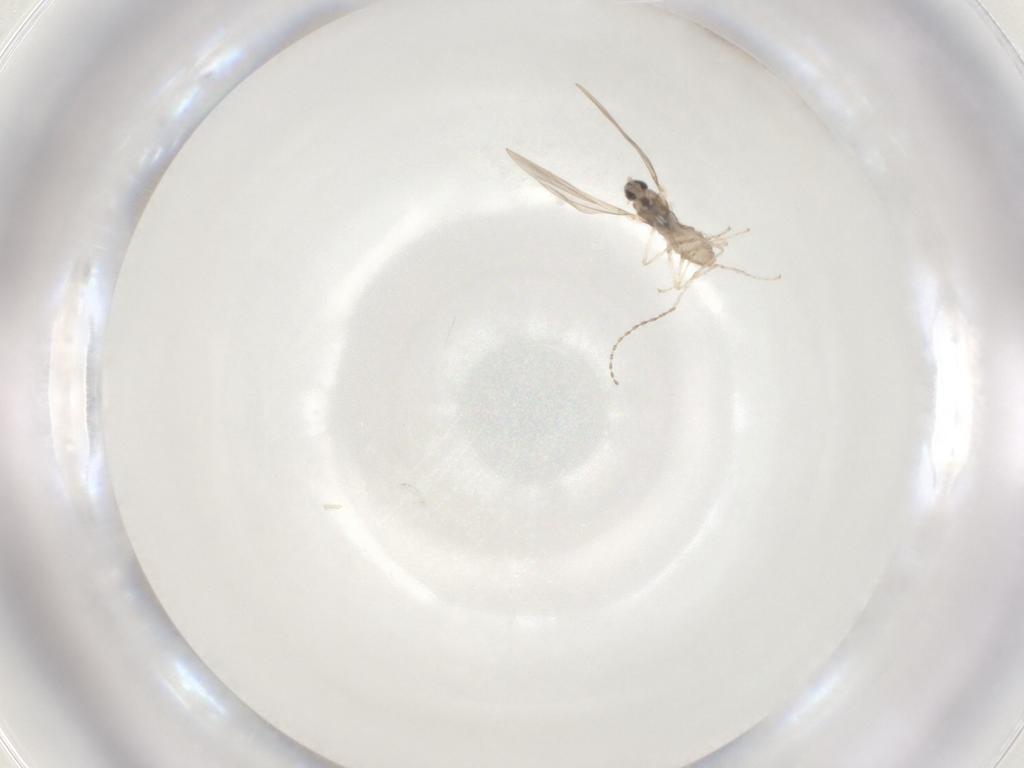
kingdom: Animalia
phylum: Arthropoda
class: Insecta
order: Diptera
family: Cecidomyiidae
